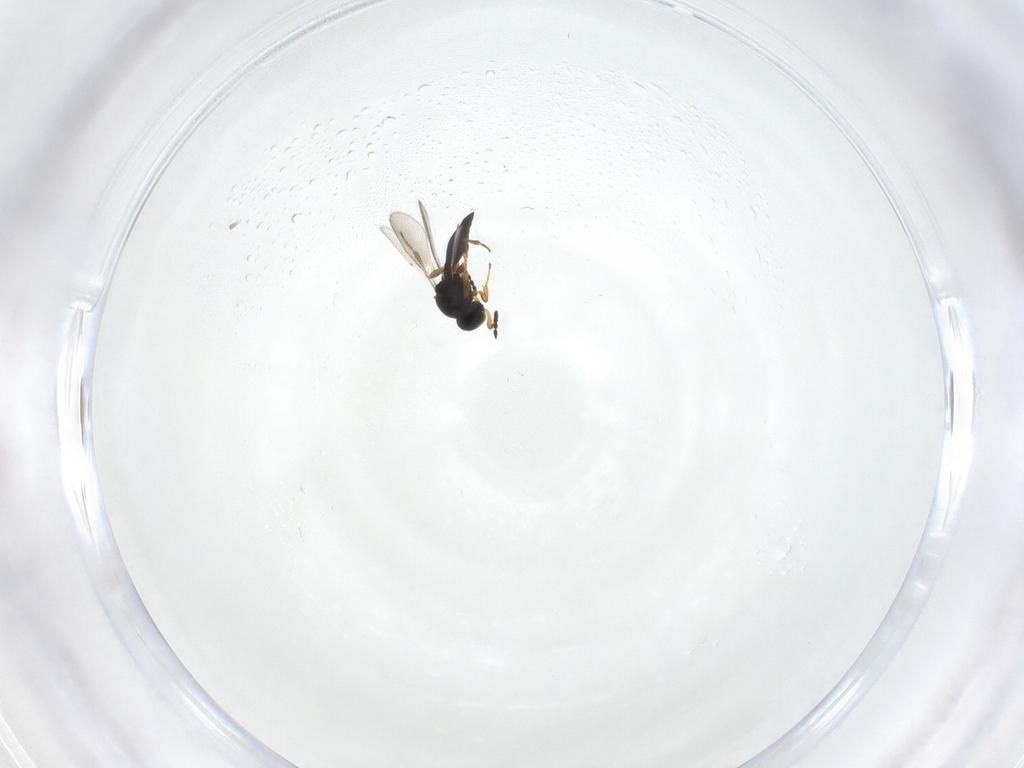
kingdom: Animalia
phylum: Arthropoda
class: Insecta
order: Hymenoptera
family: Platygastridae
